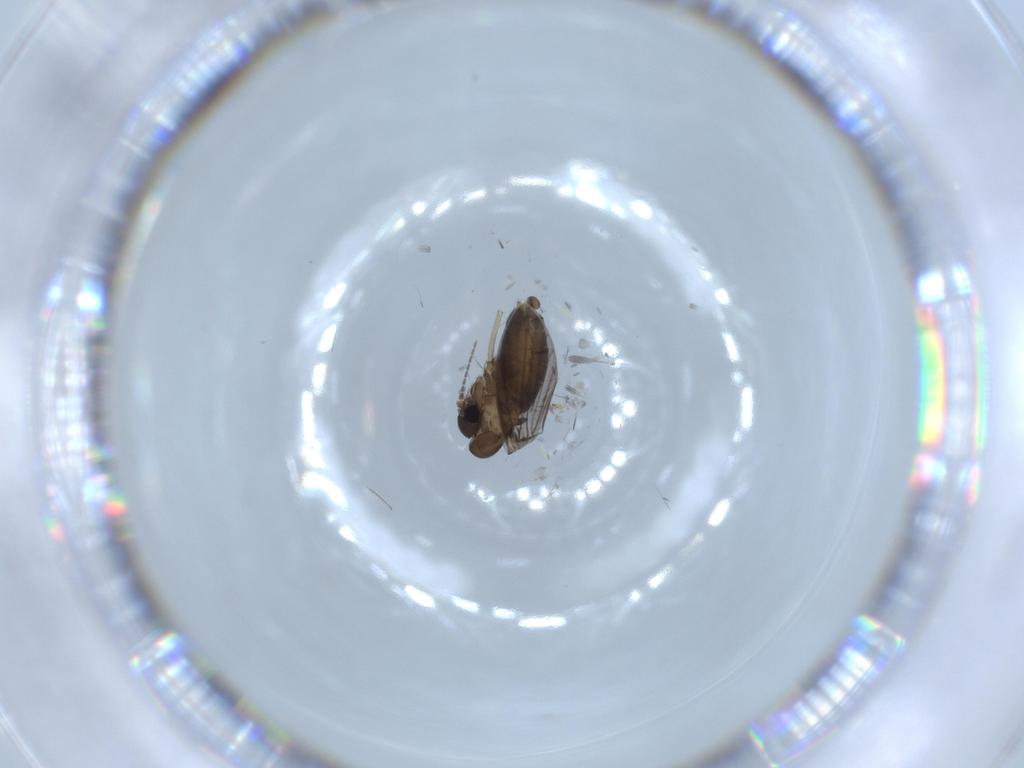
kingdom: Animalia
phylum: Arthropoda
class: Insecta
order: Diptera
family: Psychodidae
